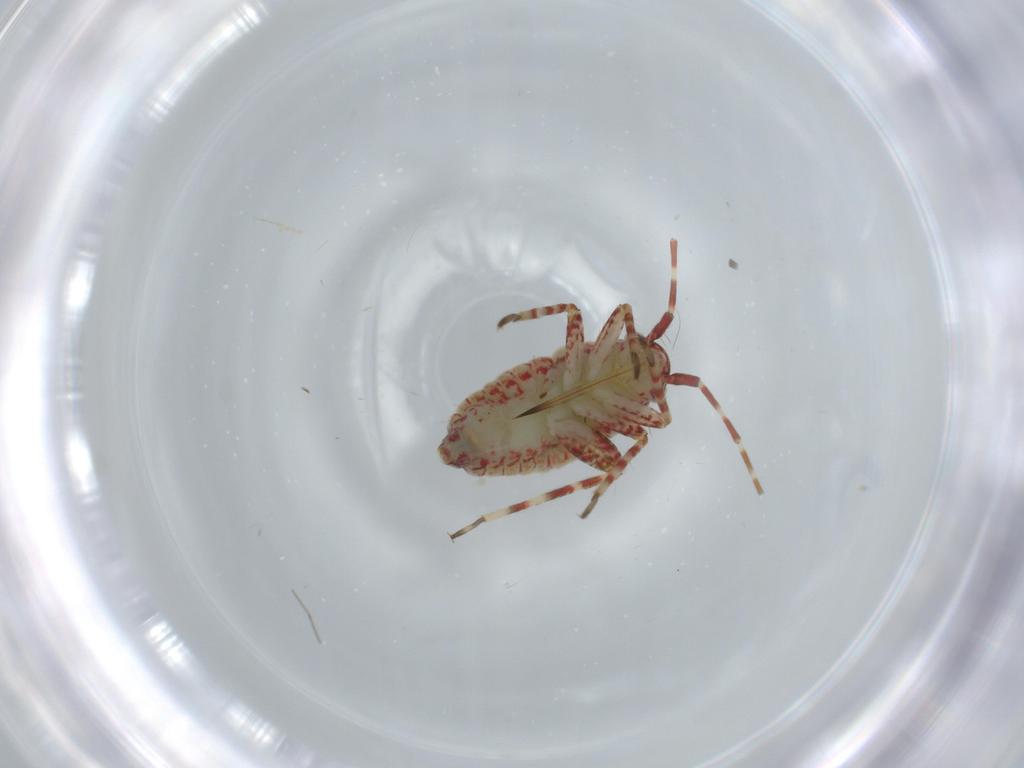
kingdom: Animalia
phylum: Arthropoda
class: Insecta
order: Hemiptera
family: Miridae
